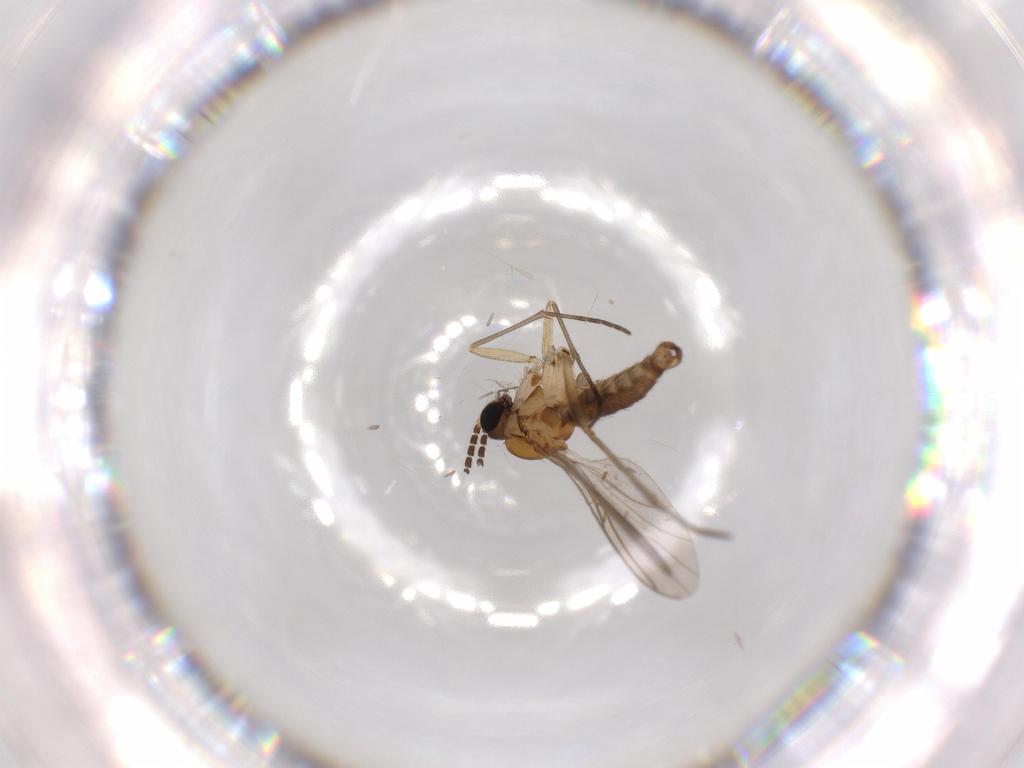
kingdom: Animalia
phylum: Arthropoda
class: Insecta
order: Diptera
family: Sciaridae
